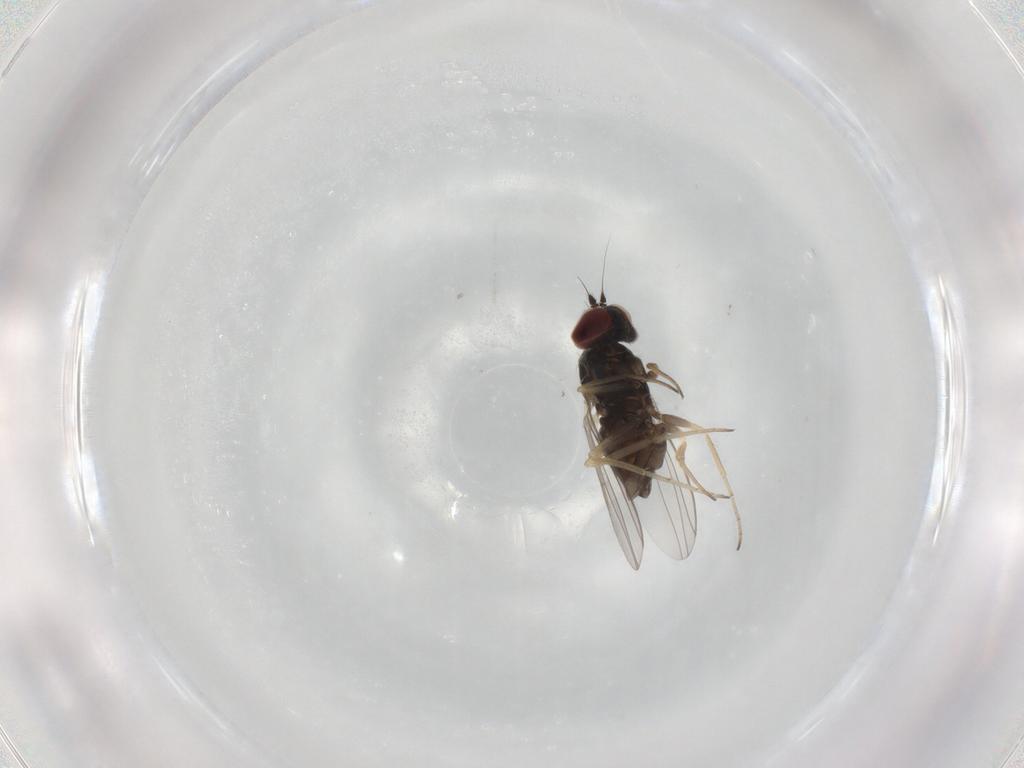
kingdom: Animalia
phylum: Arthropoda
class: Insecta
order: Diptera
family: Dolichopodidae
